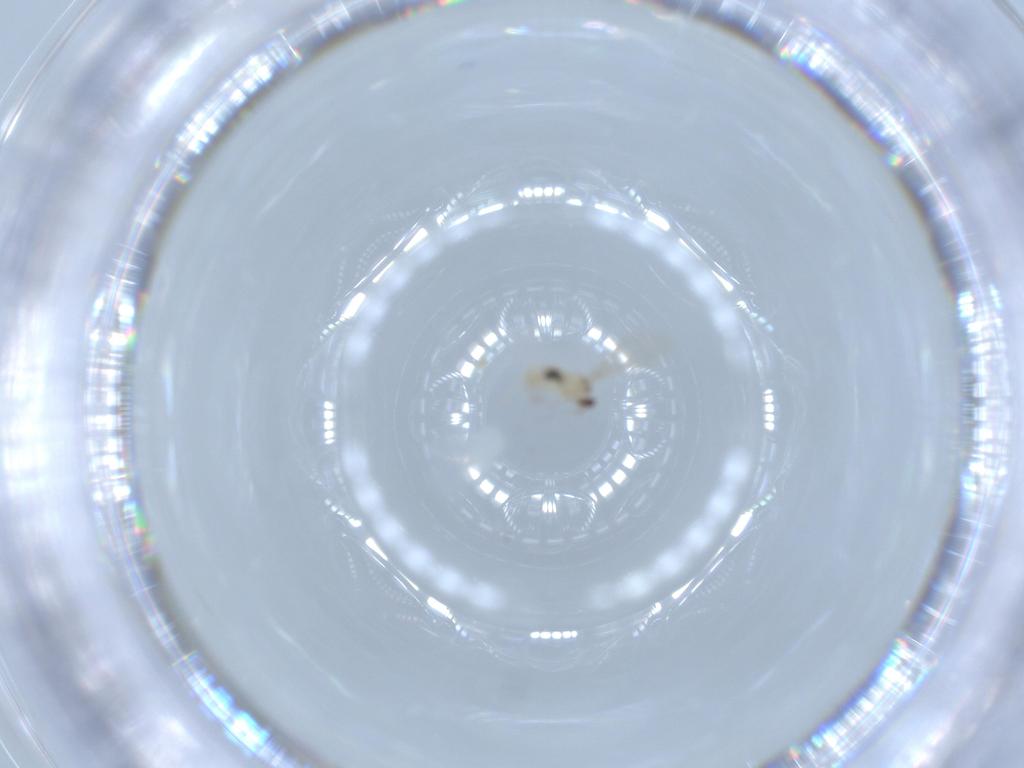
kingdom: Animalia
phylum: Arthropoda
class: Insecta
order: Diptera
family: Cecidomyiidae
